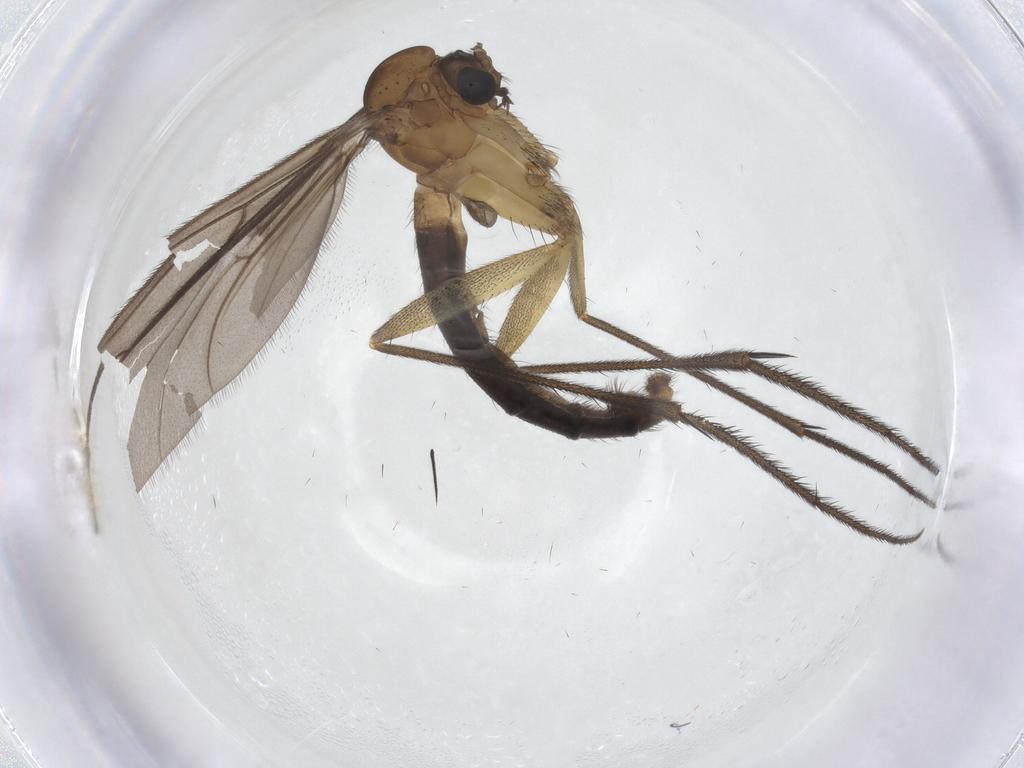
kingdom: Animalia
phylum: Arthropoda
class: Insecta
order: Diptera
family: Ditomyiidae
